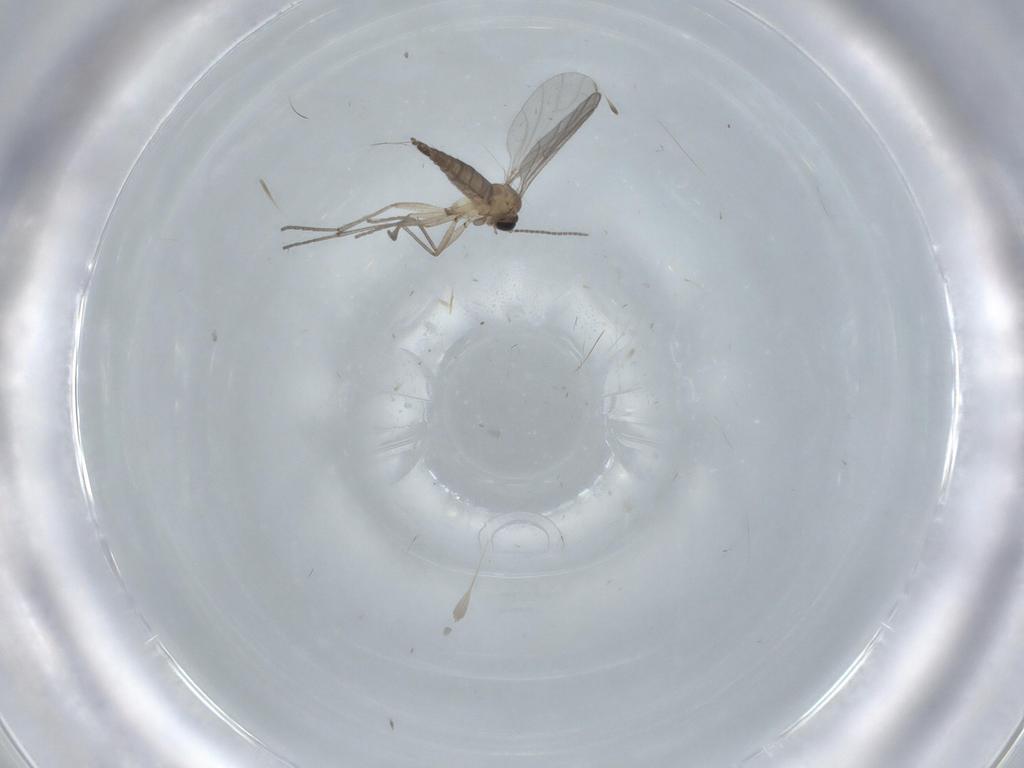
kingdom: Animalia
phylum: Arthropoda
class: Insecta
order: Diptera
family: Sciaridae
